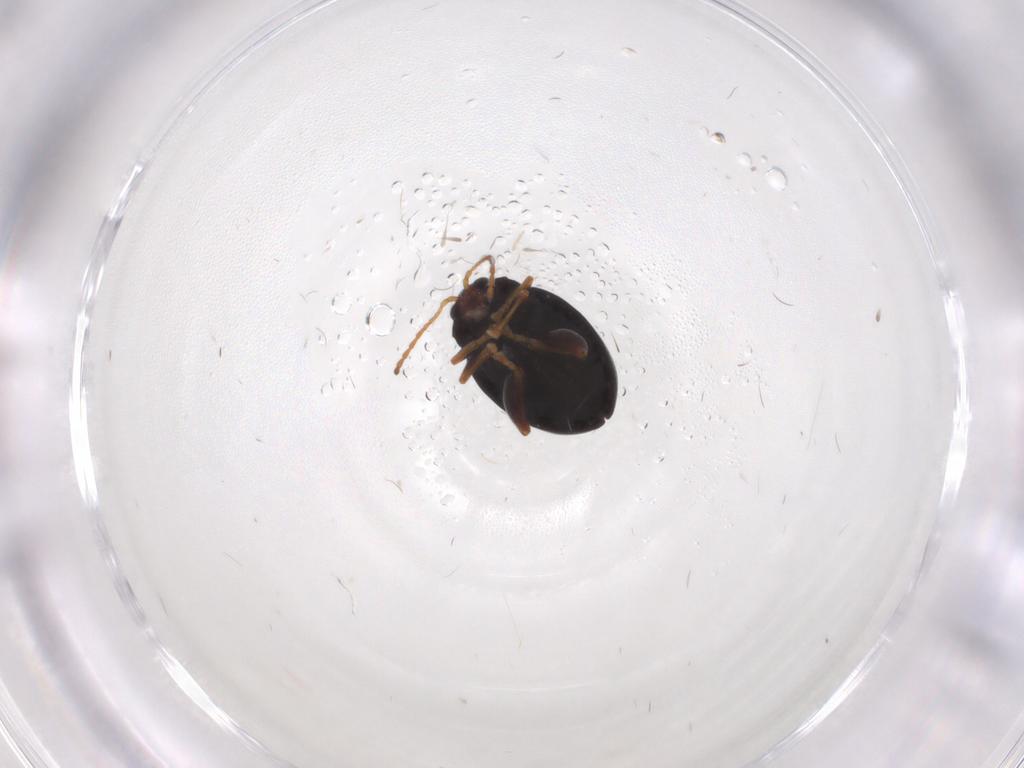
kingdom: Animalia
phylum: Arthropoda
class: Insecta
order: Coleoptera
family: Chrysomelidae
